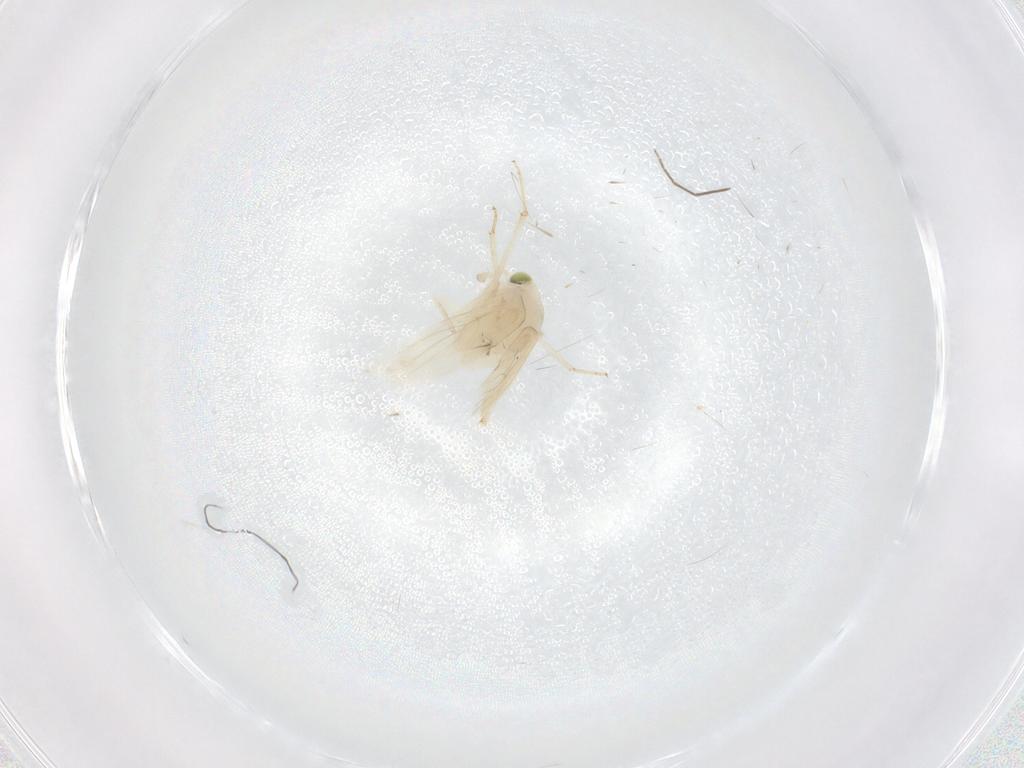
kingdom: Animalia
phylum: Arthropoda
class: Insecta
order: Psocodea
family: Lepidopsocidae
